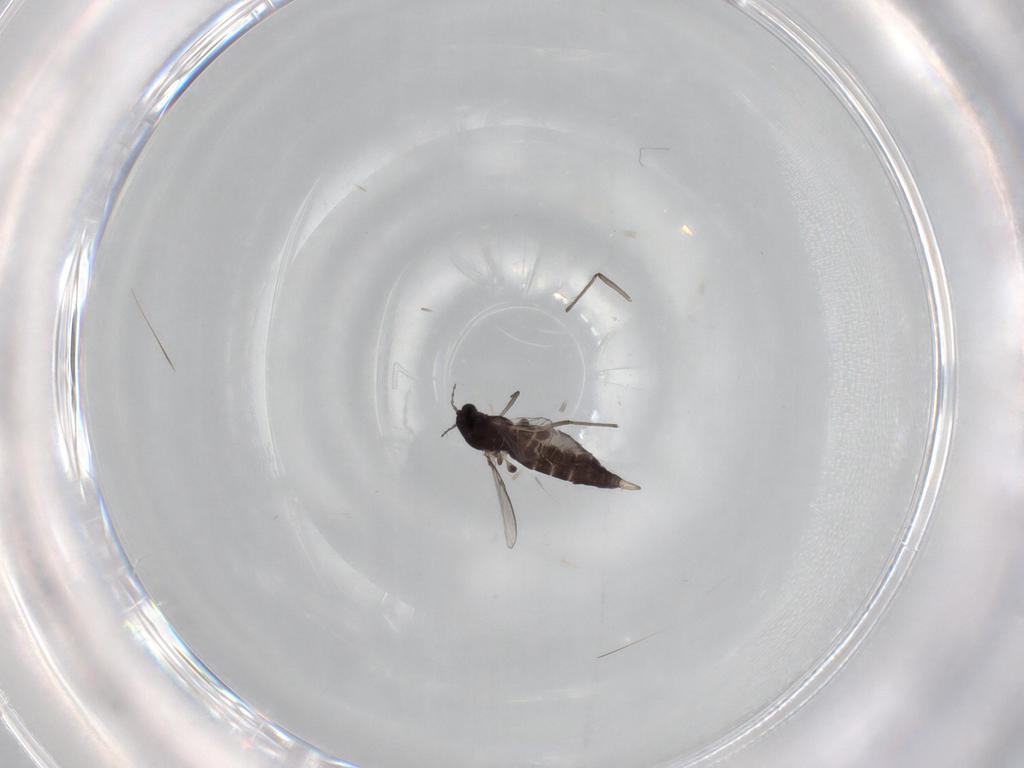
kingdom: Animalia
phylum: Arthropoda
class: Insecta
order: Diptera
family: Chironomidae
